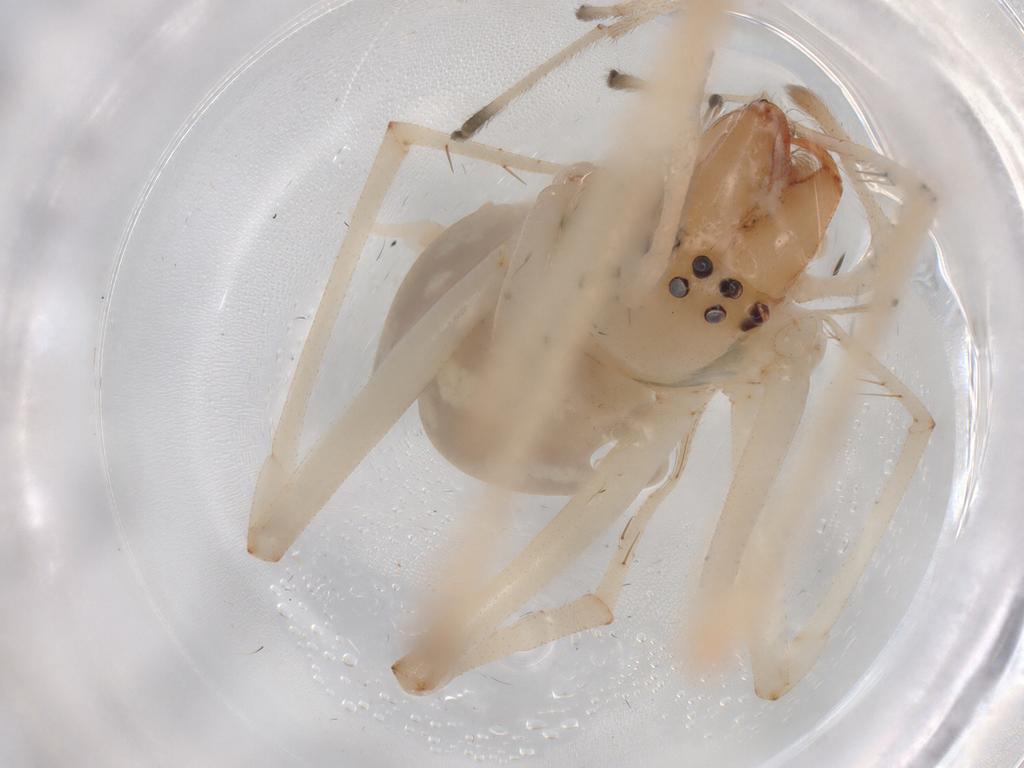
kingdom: Animalia
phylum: Arthropoda
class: Arachnida
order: Araneae
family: Cheiracanthiidae
